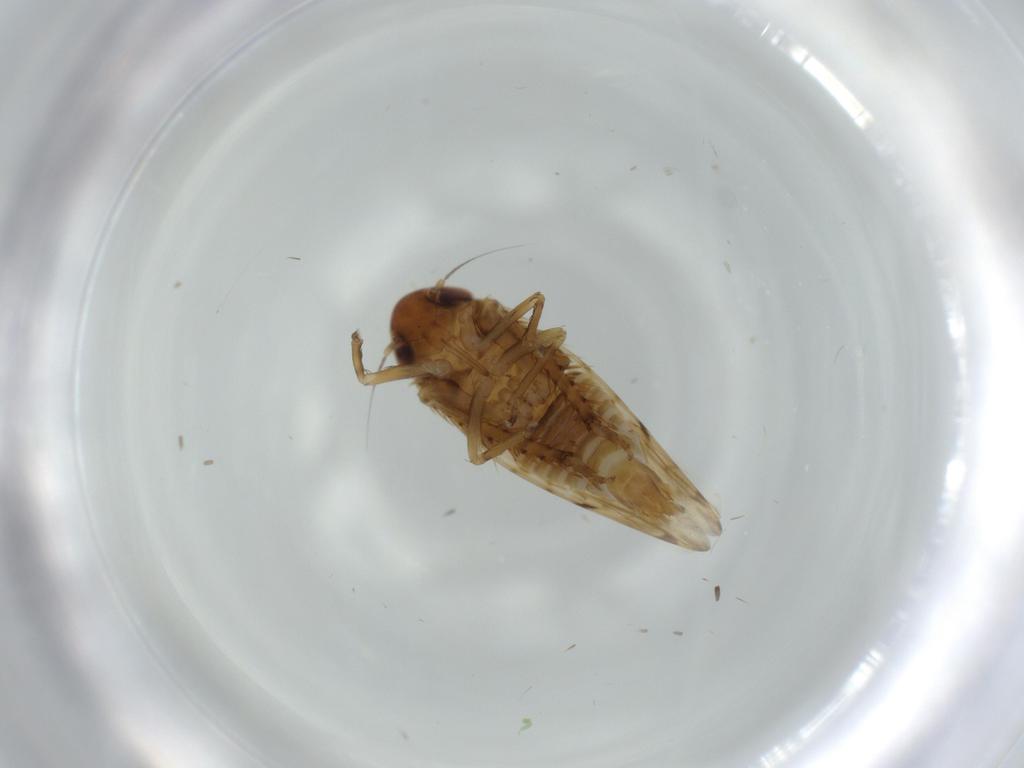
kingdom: Animalia
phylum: Arthropoda
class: Insecta
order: Hemiptera
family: Cicadellidae
